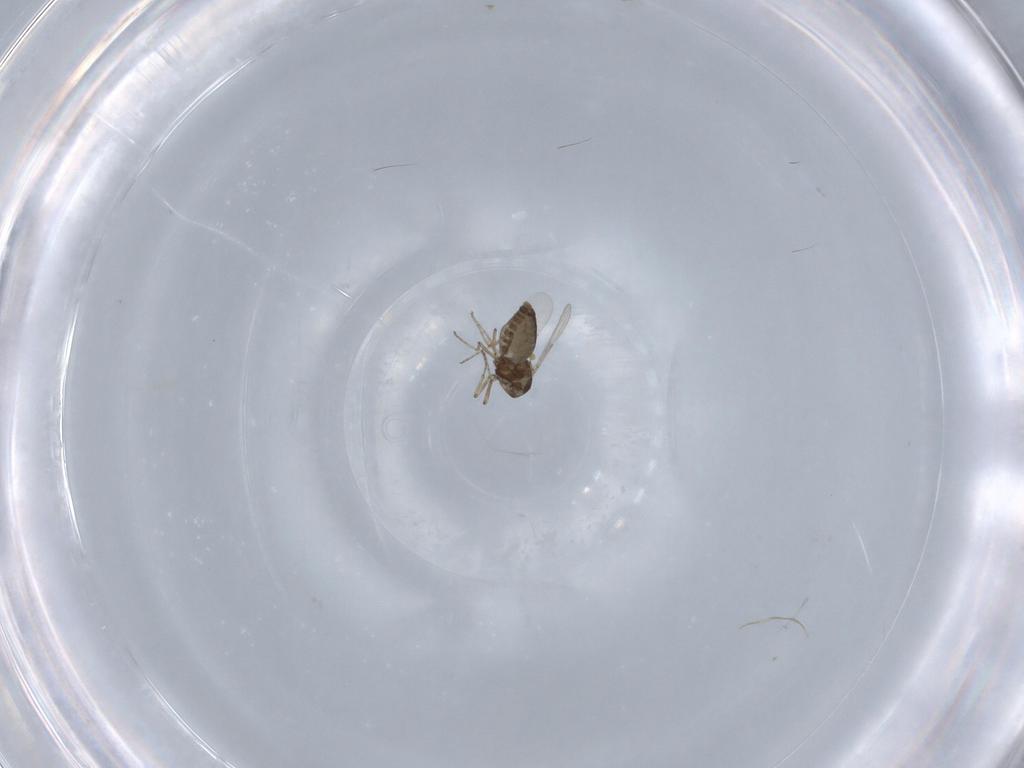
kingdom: Animalia
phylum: Arthropoda
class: Insecta
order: Diptera
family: Ceratopogonidae
